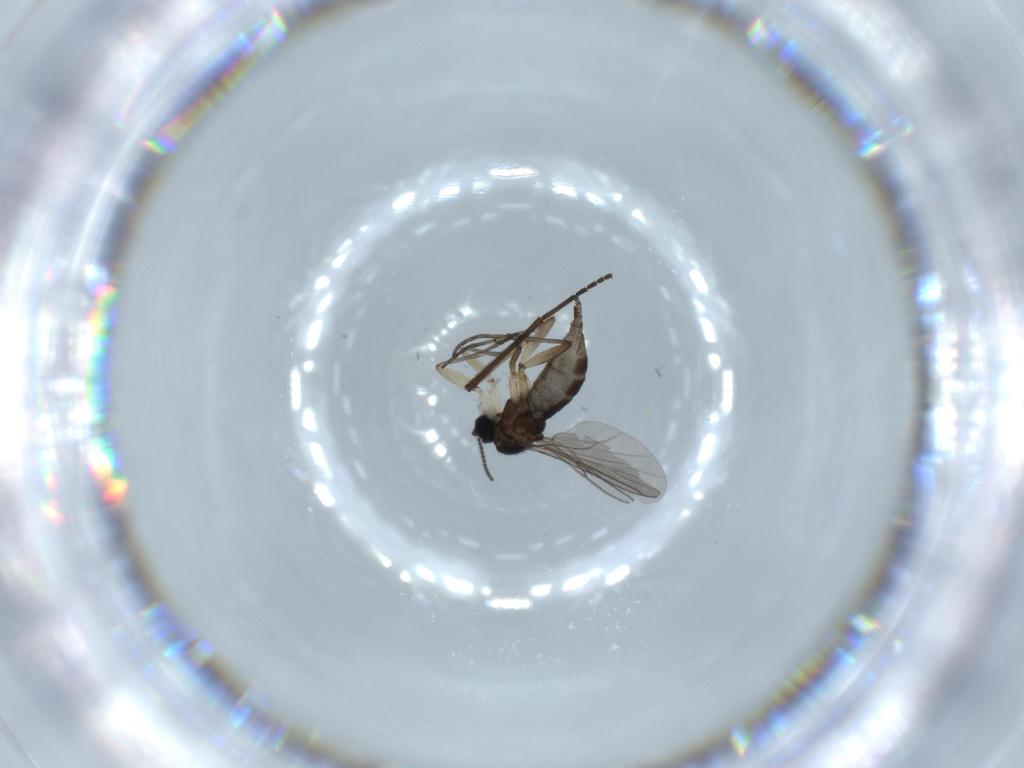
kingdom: Animalia
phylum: Arthropoda
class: Insecta
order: Diptera
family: Sciaridae
